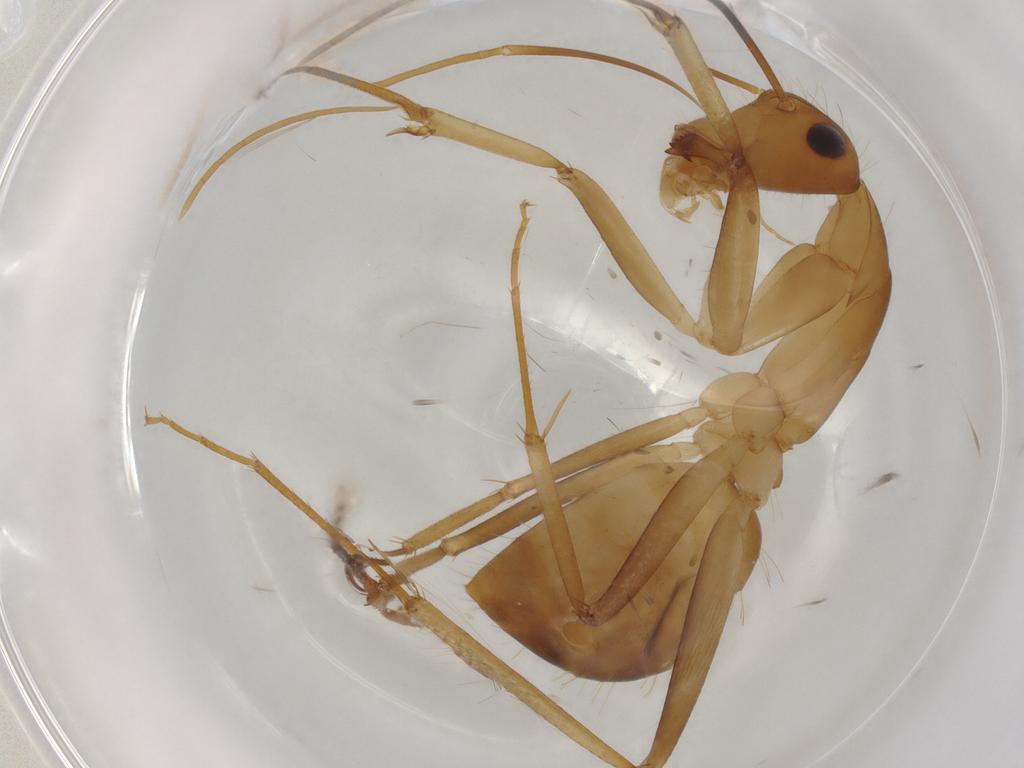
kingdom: Animalia
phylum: Arthropoda
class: Insecta
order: Hymenoptera
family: Formicidae
